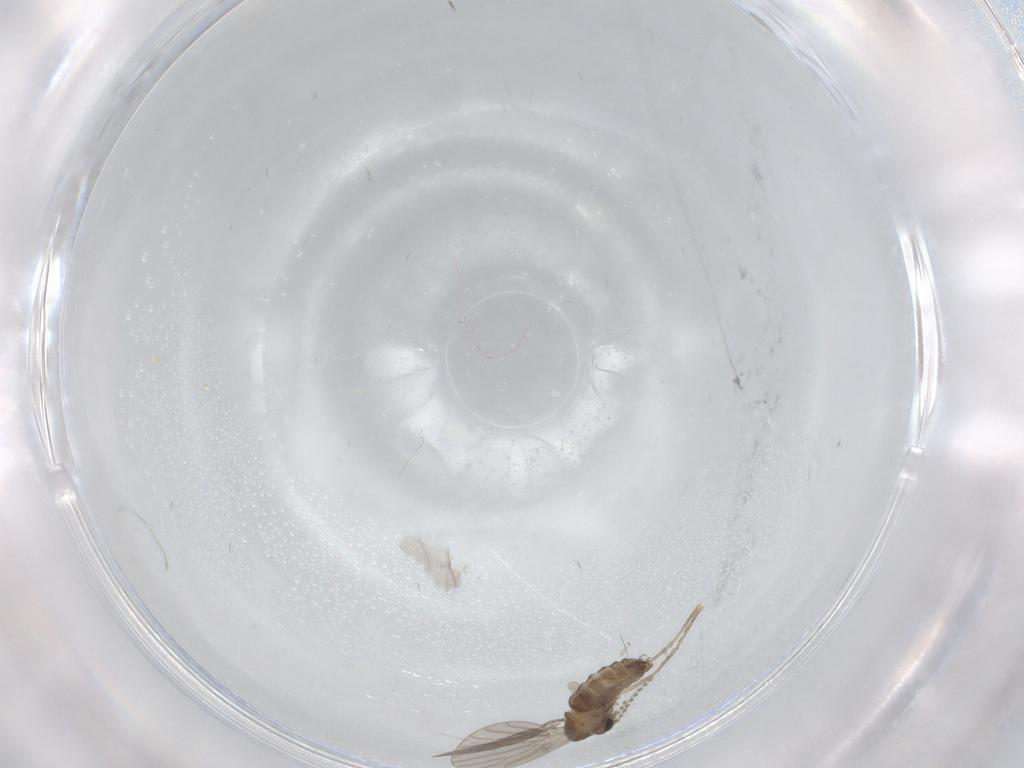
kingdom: Animalia
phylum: Arthropoda
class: Insecta
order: Diptera
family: Psychodidae
